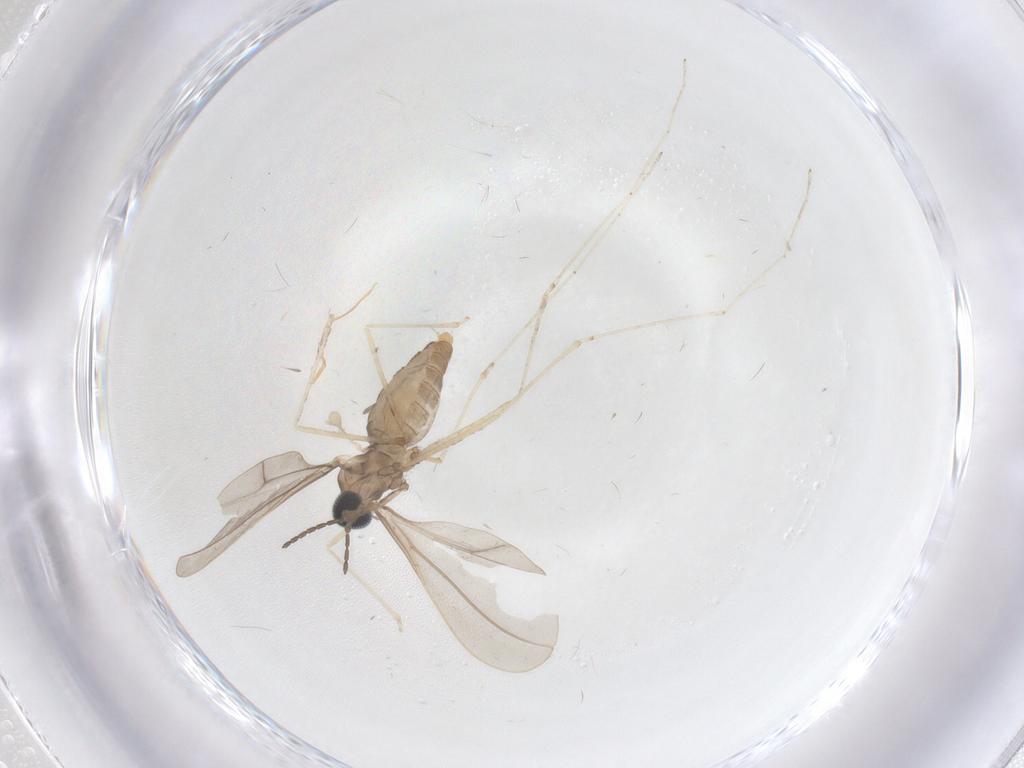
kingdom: Animalia
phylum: Arthropoda
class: Insecta
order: Diptera
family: Cecidomyiidae
